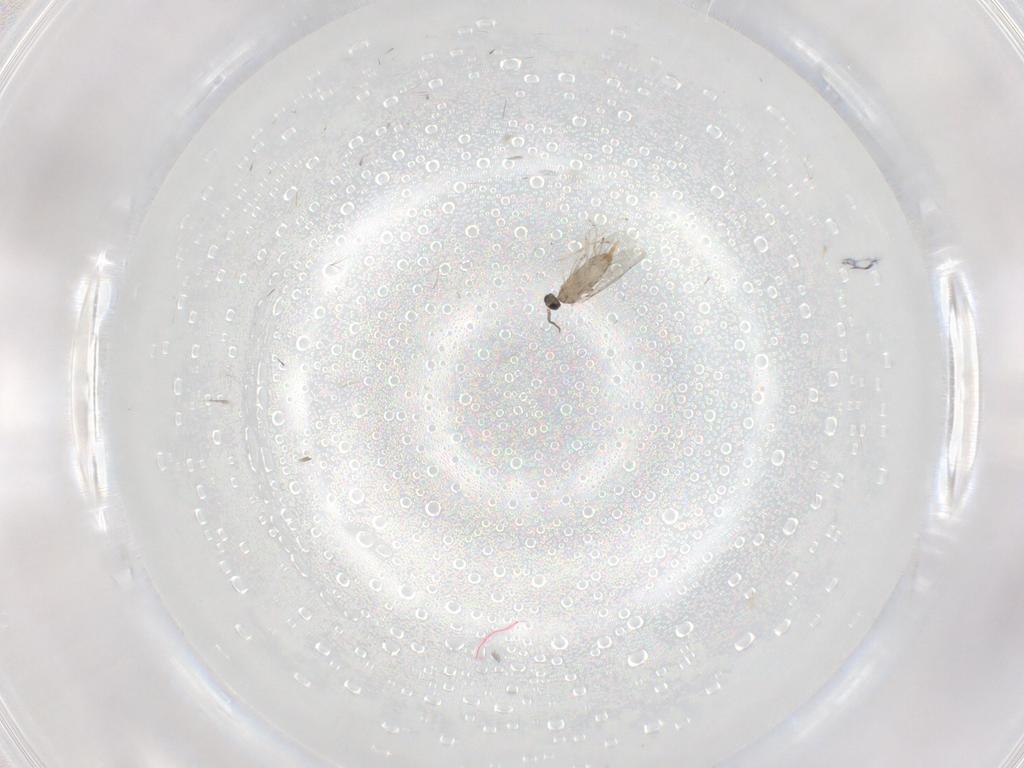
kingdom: Animalia
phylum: Arthropoda
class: Insecta
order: Diptera
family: Cecidomyiidae
